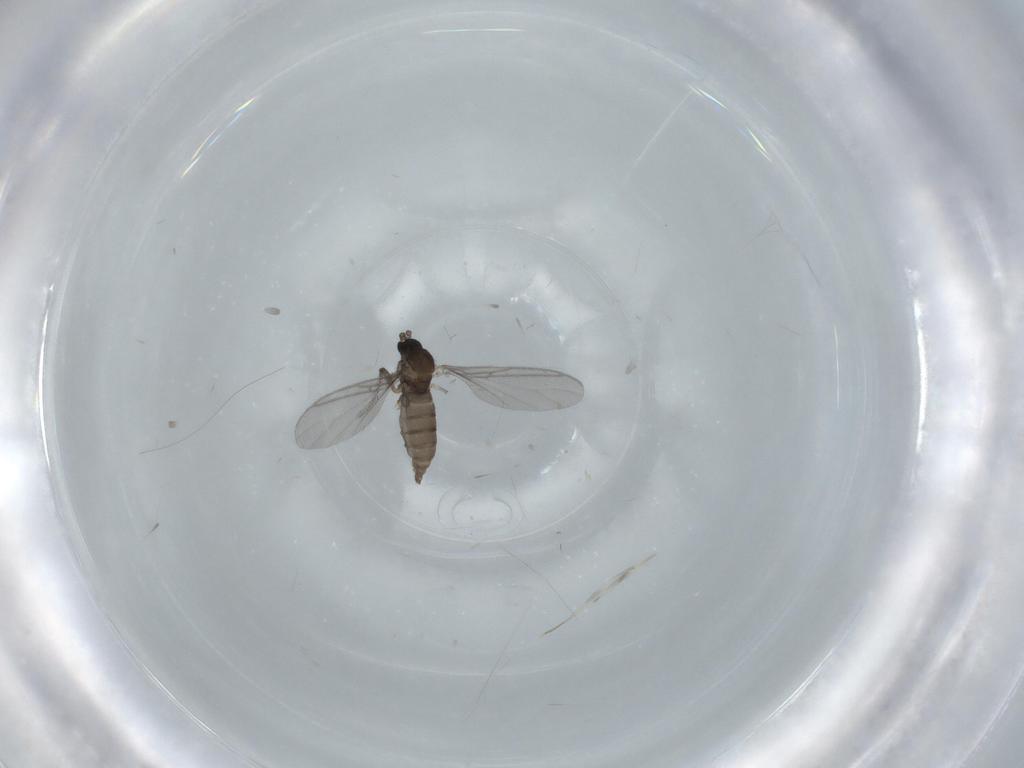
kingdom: Animalia
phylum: Arthropoda
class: Insecta
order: Diptera
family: Sciaridae
